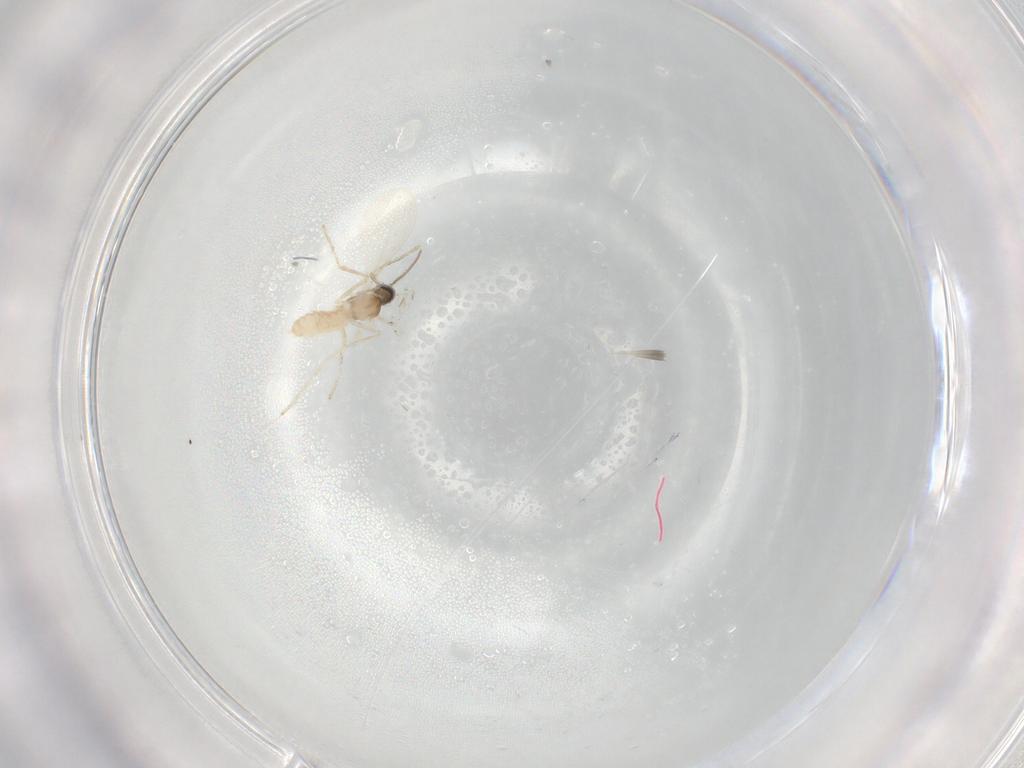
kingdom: Animalia
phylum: Arthropoda
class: Insecta
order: Diptera
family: Cecidomyiidae
